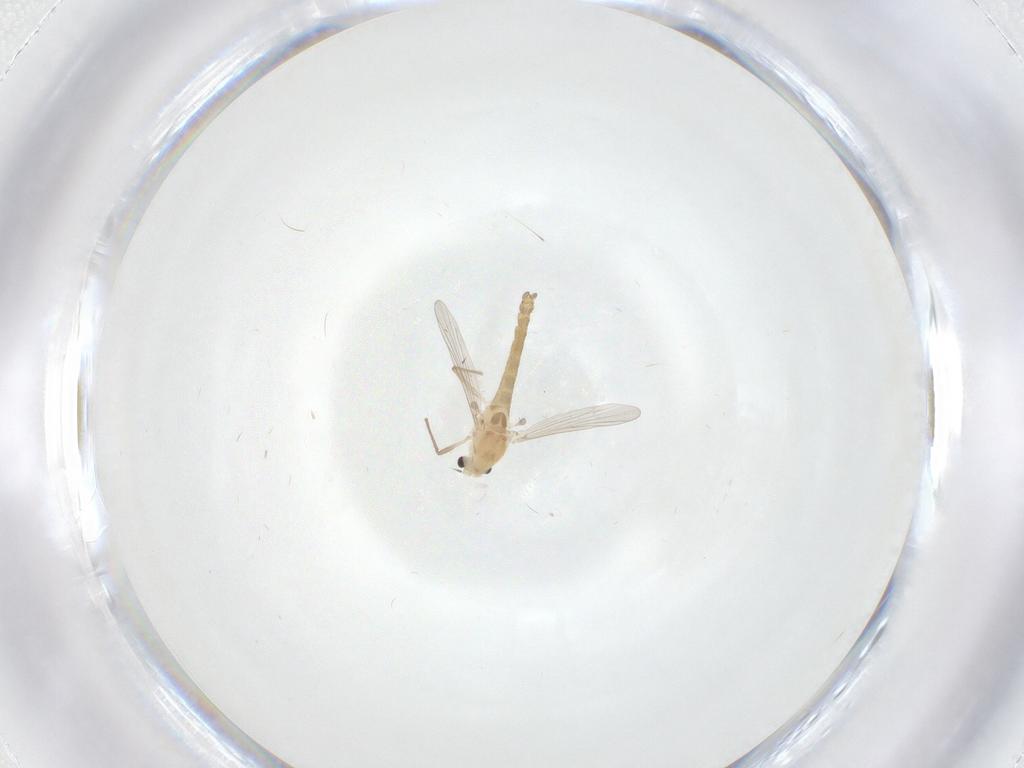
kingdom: Animalia
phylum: Arthropoda
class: Insecta
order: Diptera
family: Chironomidae
